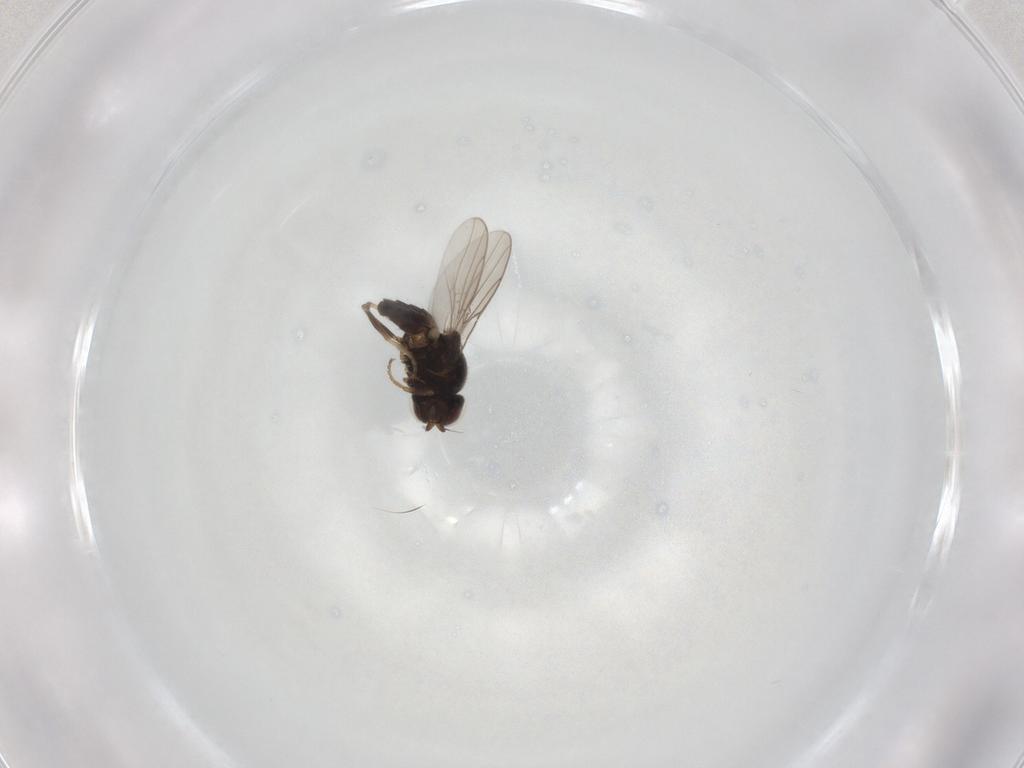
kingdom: Animalia
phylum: Arthropoda
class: Insecta
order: Diptera
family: Chloropidae
